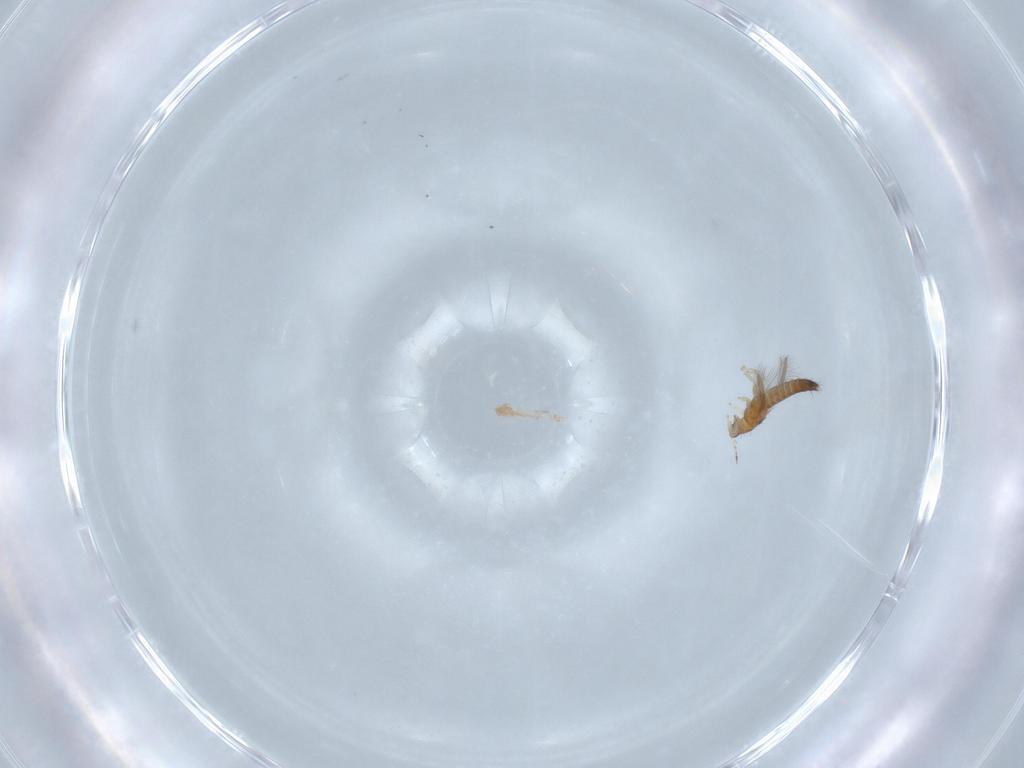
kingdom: Animalia
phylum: Arthropoda
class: Insecta
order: Thysanoptera
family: Thripidae
